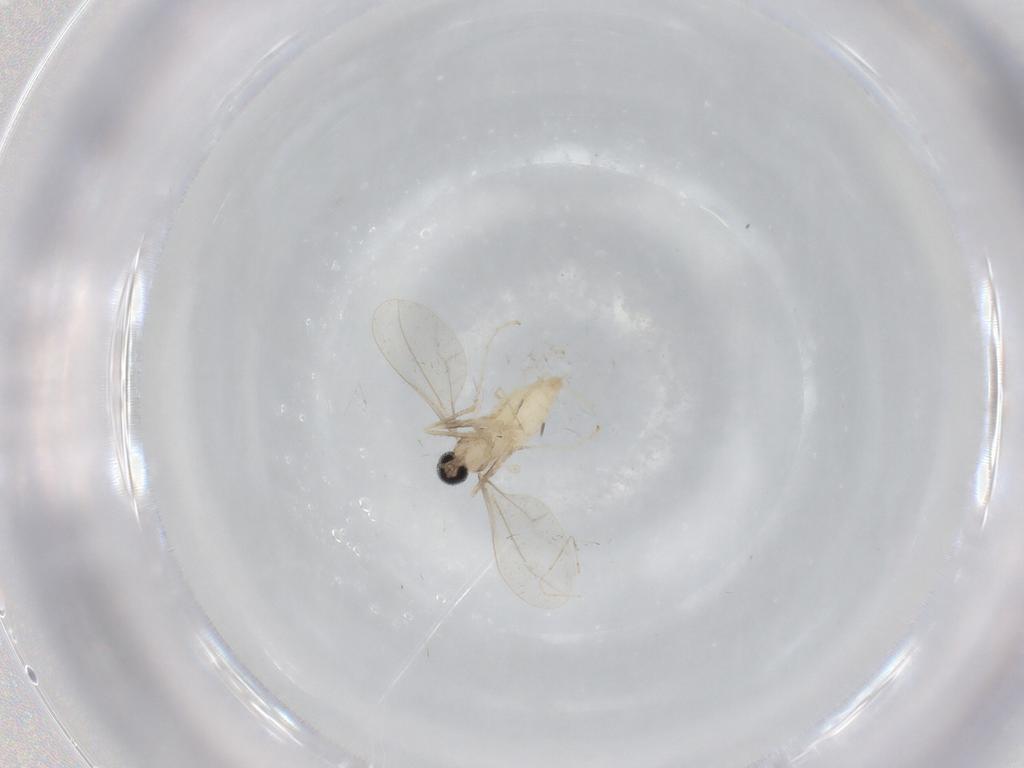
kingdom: Animalia
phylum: Arthropoda
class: Insecta
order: Diptera
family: Cecidomyiidae
